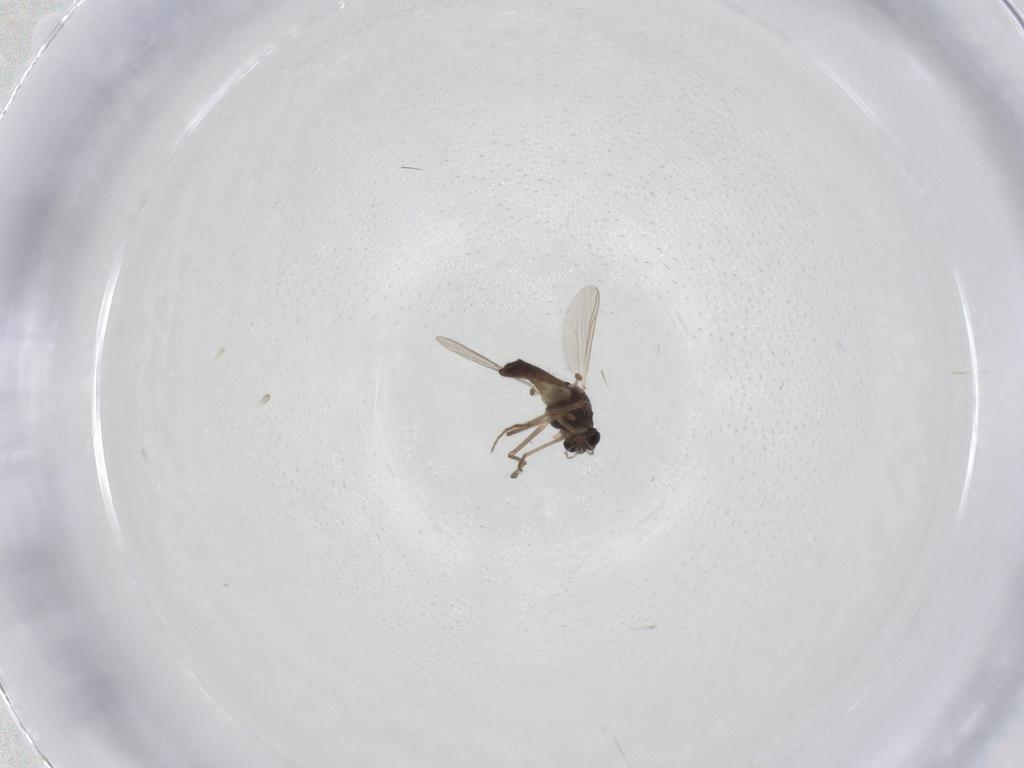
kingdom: Animalia
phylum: Arthropoda
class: Insecta
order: Diptera
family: Chironomidae
